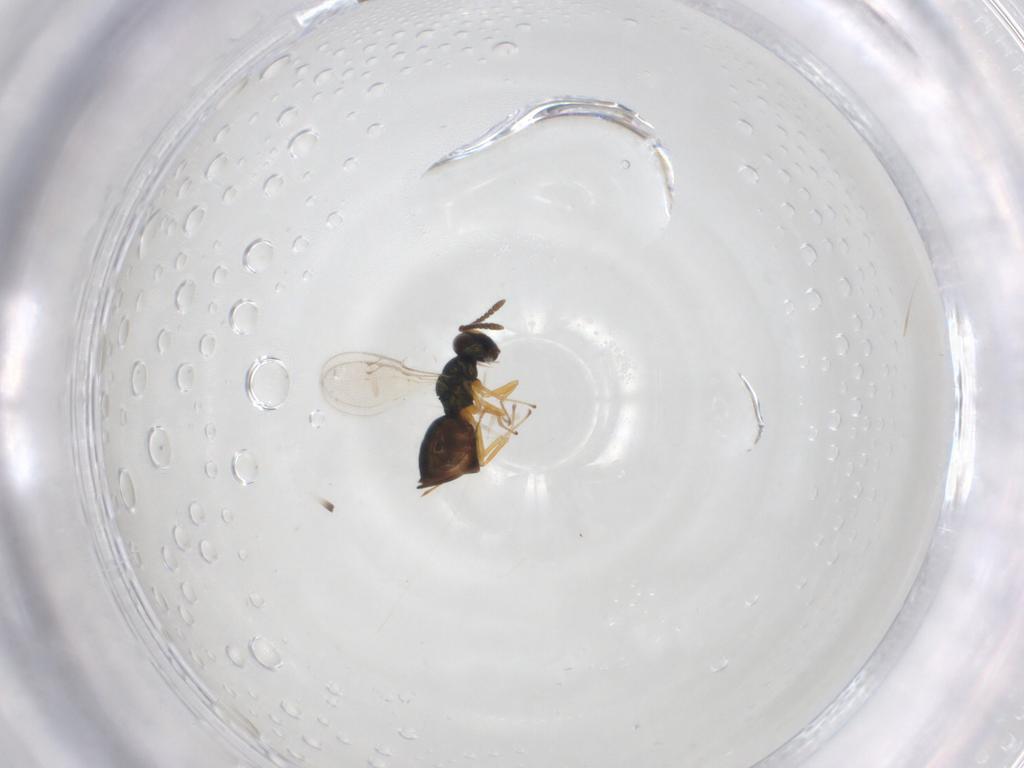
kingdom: Animalia
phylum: Arthropoda
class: Insecta
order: Hymenoptera
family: Pteromalidae
